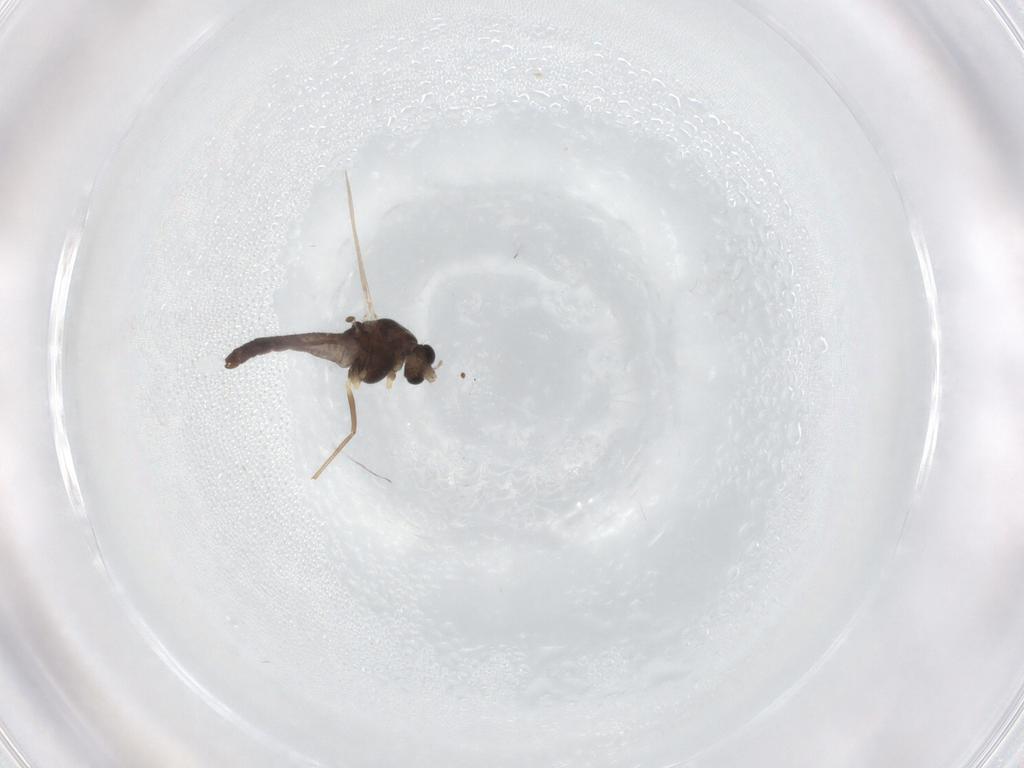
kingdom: Animalia
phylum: Arthropoda
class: Insecta
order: Diptera
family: Chironomidae
